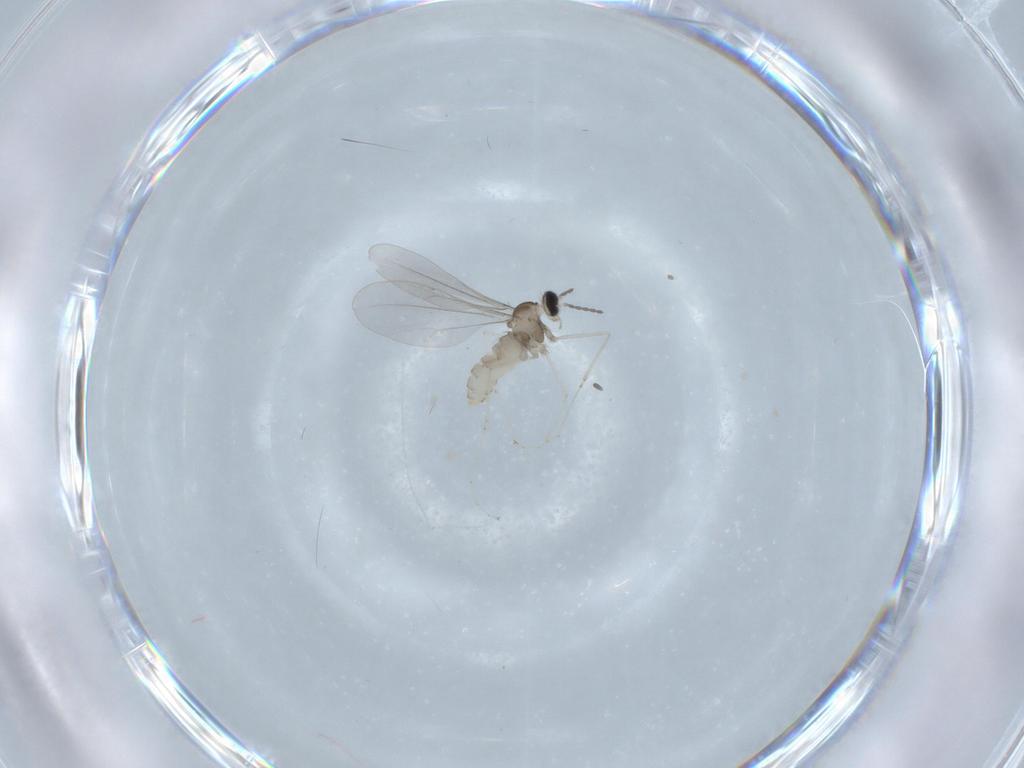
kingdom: Animalia
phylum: Arthropoda
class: Insecta
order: Diptera
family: Cecidomyiidae
